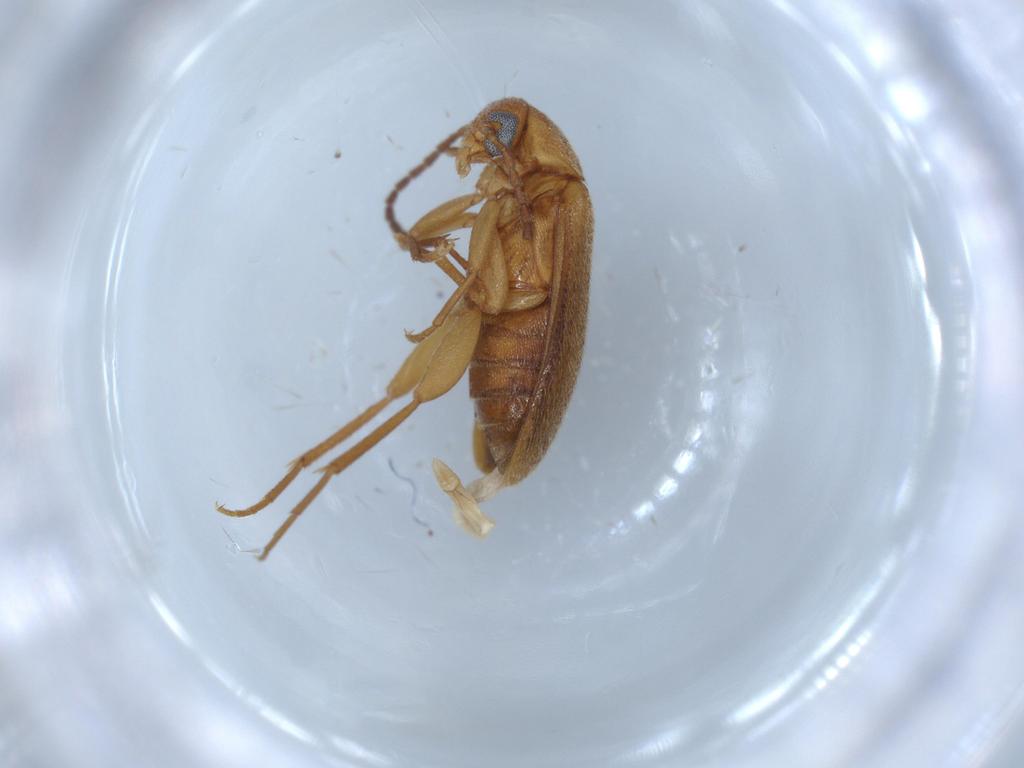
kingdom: Animalia
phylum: Arthropoda
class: Insecta
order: Coleoptera
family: Scraptiidae
